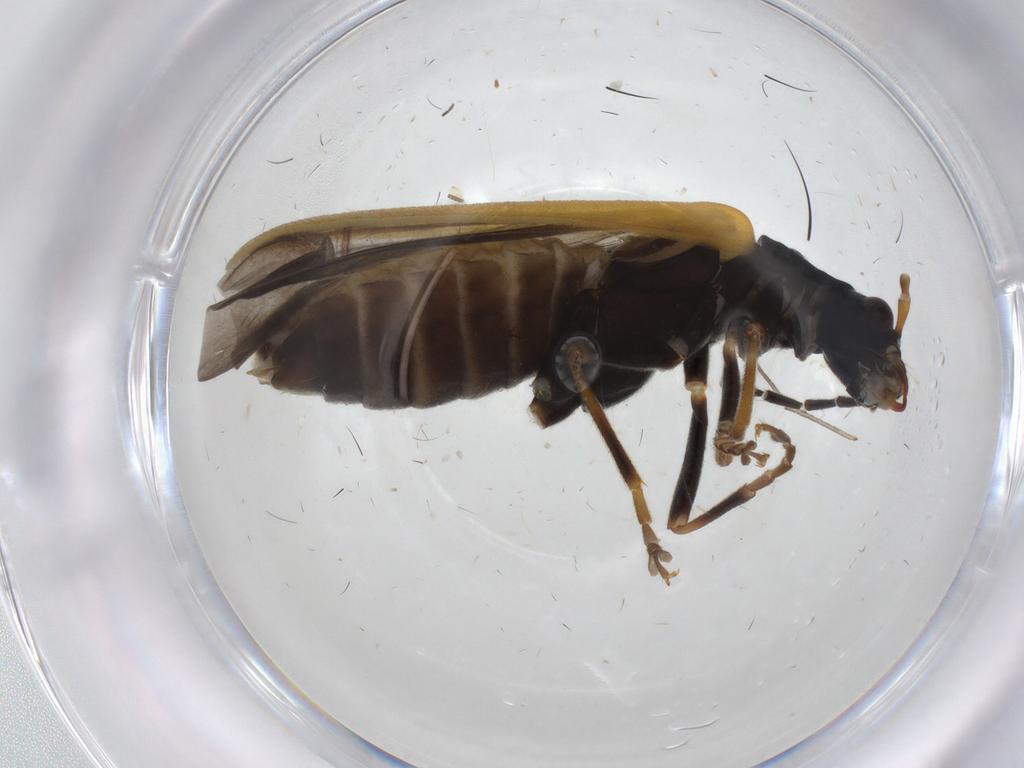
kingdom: Animalia
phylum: Arthropoda
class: Insecta
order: Coleoptera
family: Cantharidae
